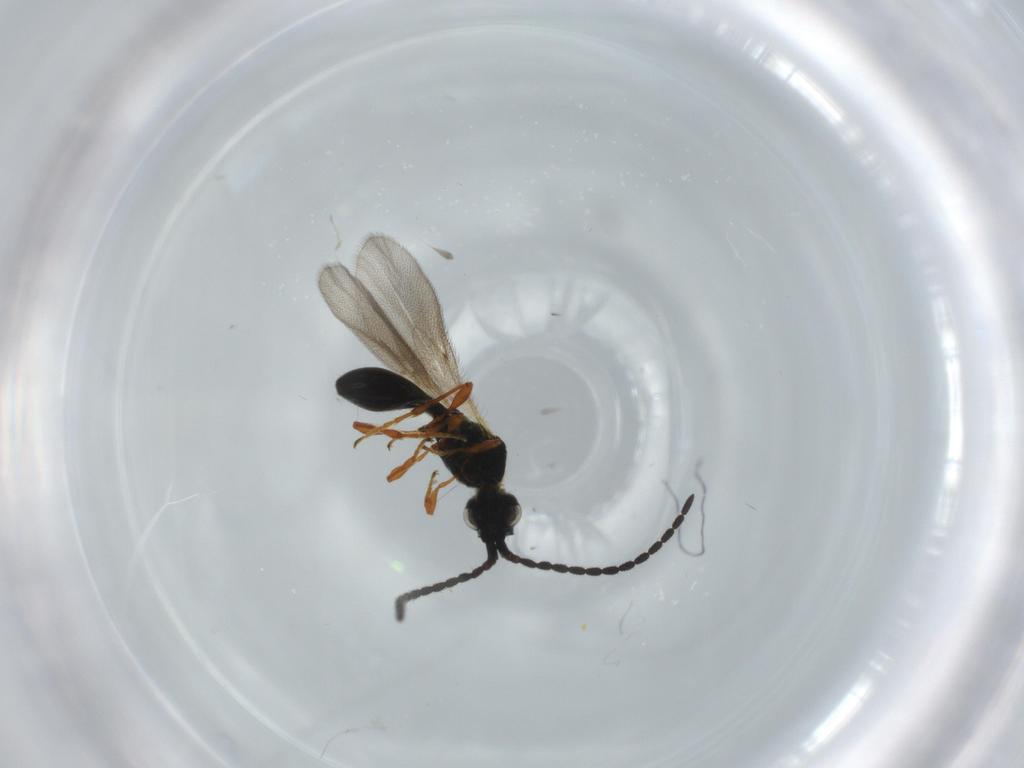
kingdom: Animalia
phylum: Arthropoda
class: Insecta
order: Hymenoptera
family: Diapriidae
